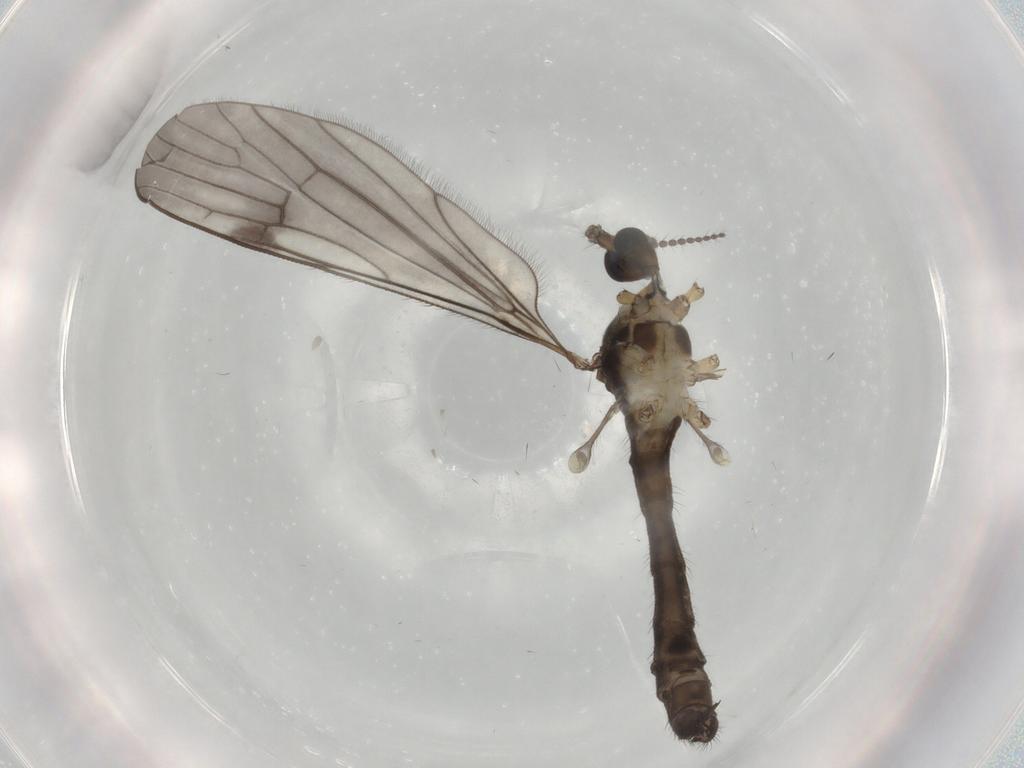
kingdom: Animalia
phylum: Arthropoda
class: Insecta
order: Diptera
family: Limoniidae
